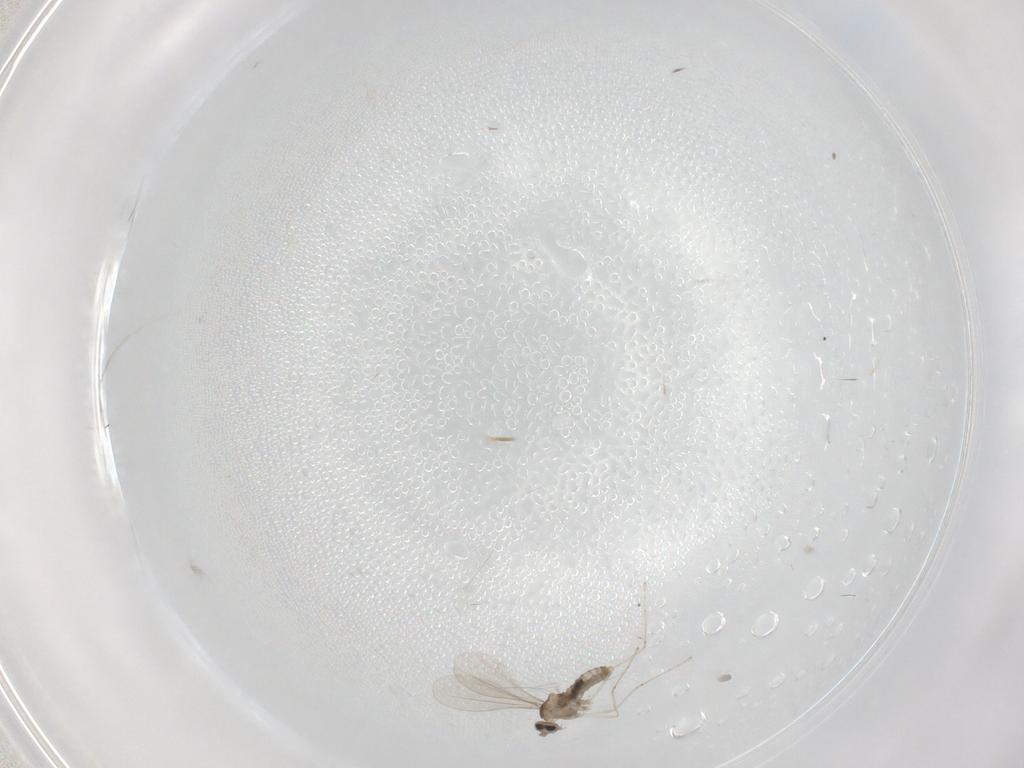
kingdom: Animalia
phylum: Arthropoda
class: Insecta
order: Diptera
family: Cecidomyiidae
